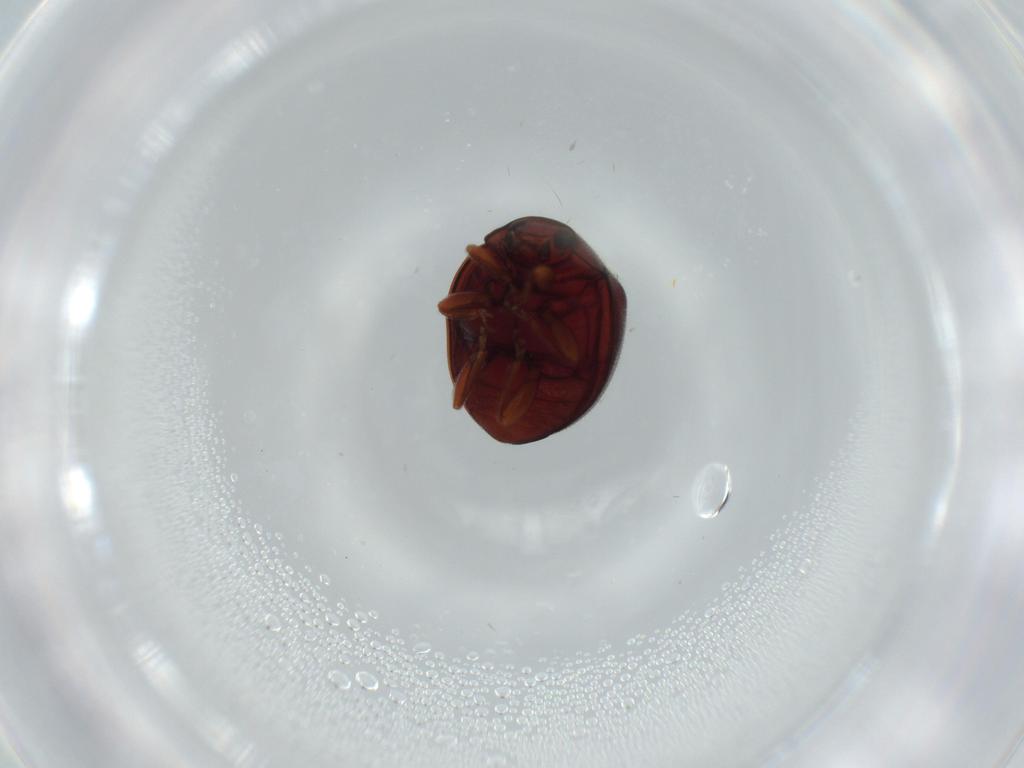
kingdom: Animalia
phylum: Arthropoda
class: Insecta
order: Coleoptera
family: Coccinellidae
